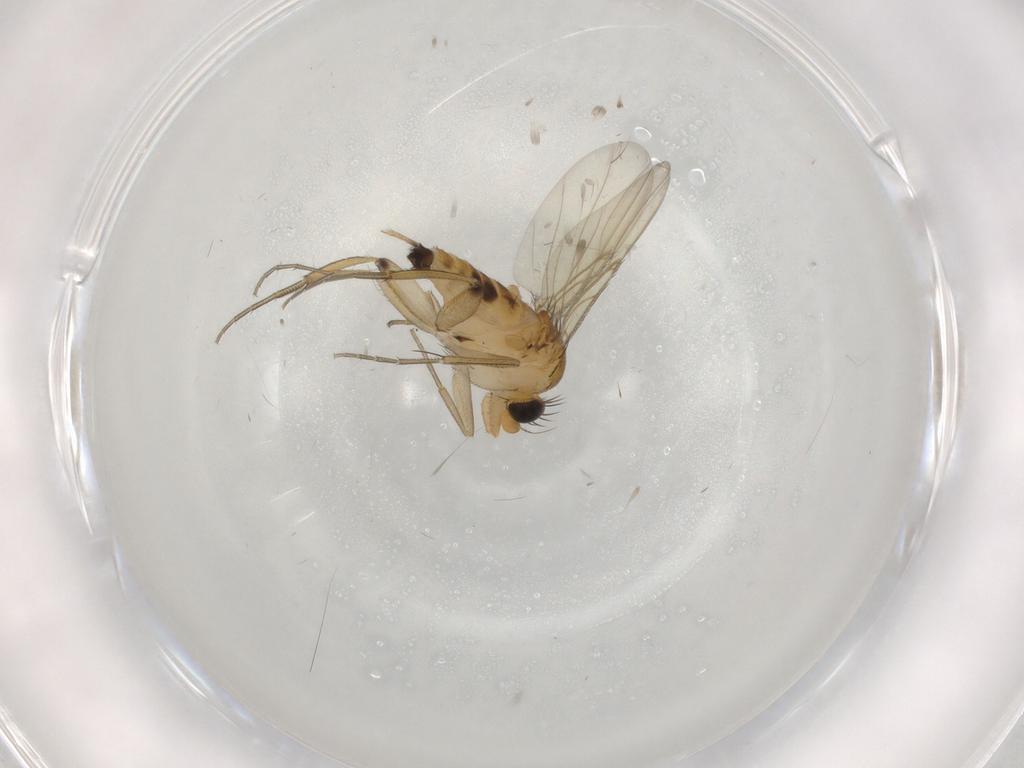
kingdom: Animalia
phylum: Arthropoda
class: Insecta
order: Diptera
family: Phoridae
